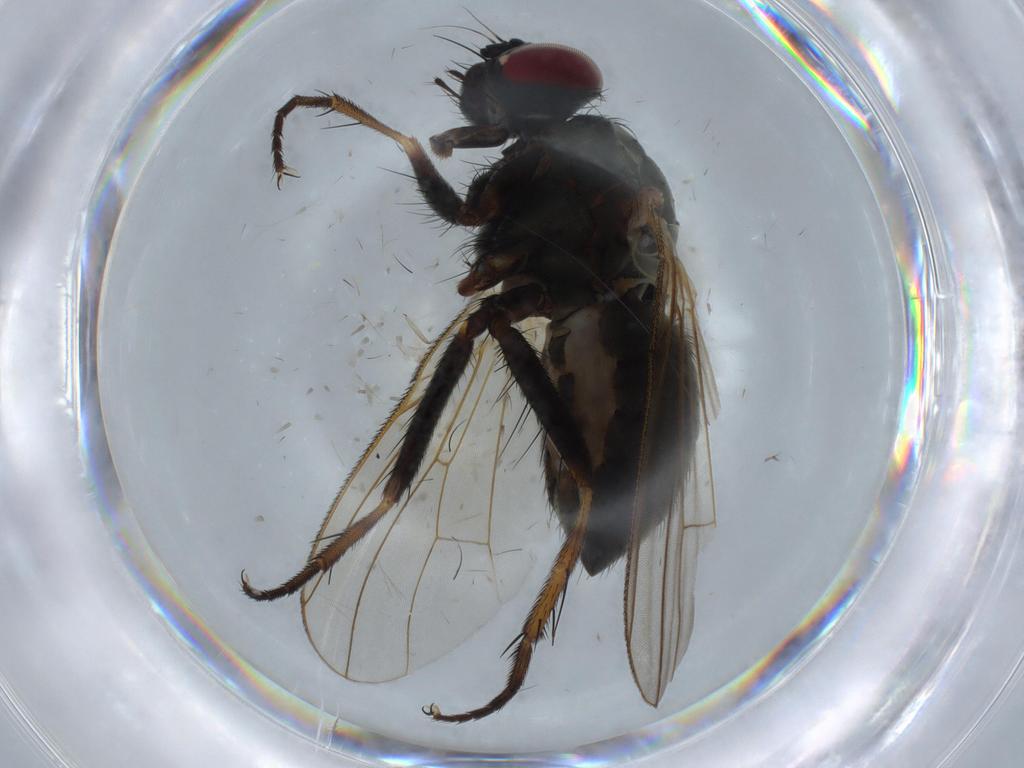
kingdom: Animalia
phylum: Arthropoda
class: Insecta
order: Diptera
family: Muscidae
